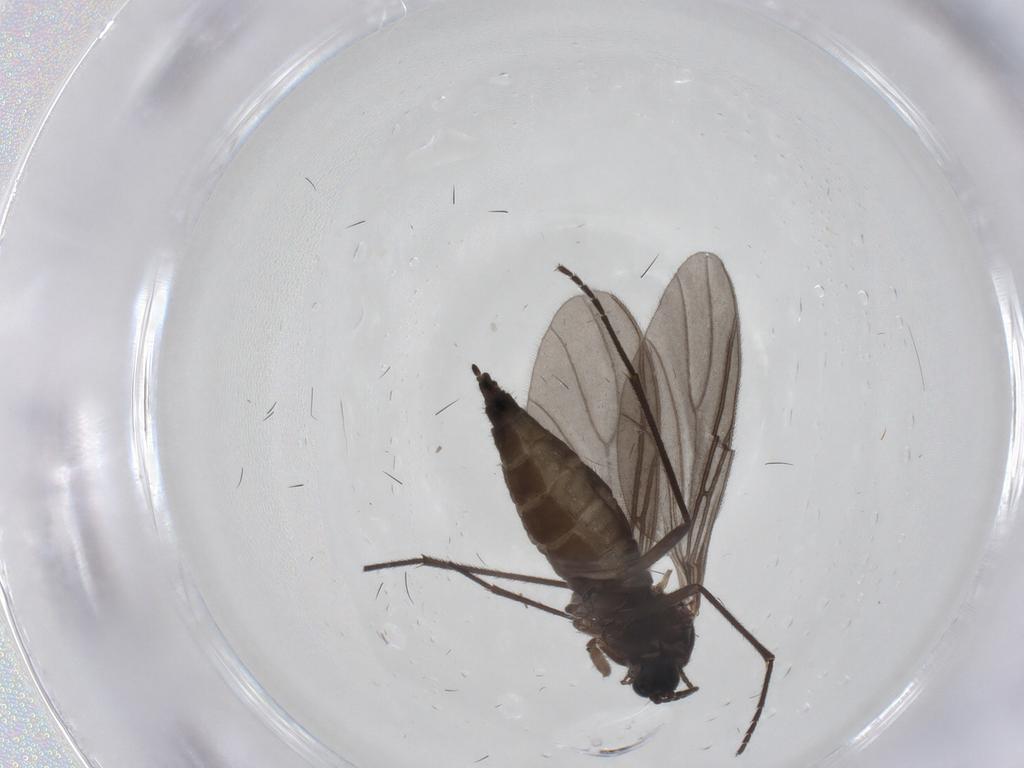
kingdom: Animalia
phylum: Arthropoda
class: Insecta
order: Diptera
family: Sciaridae
